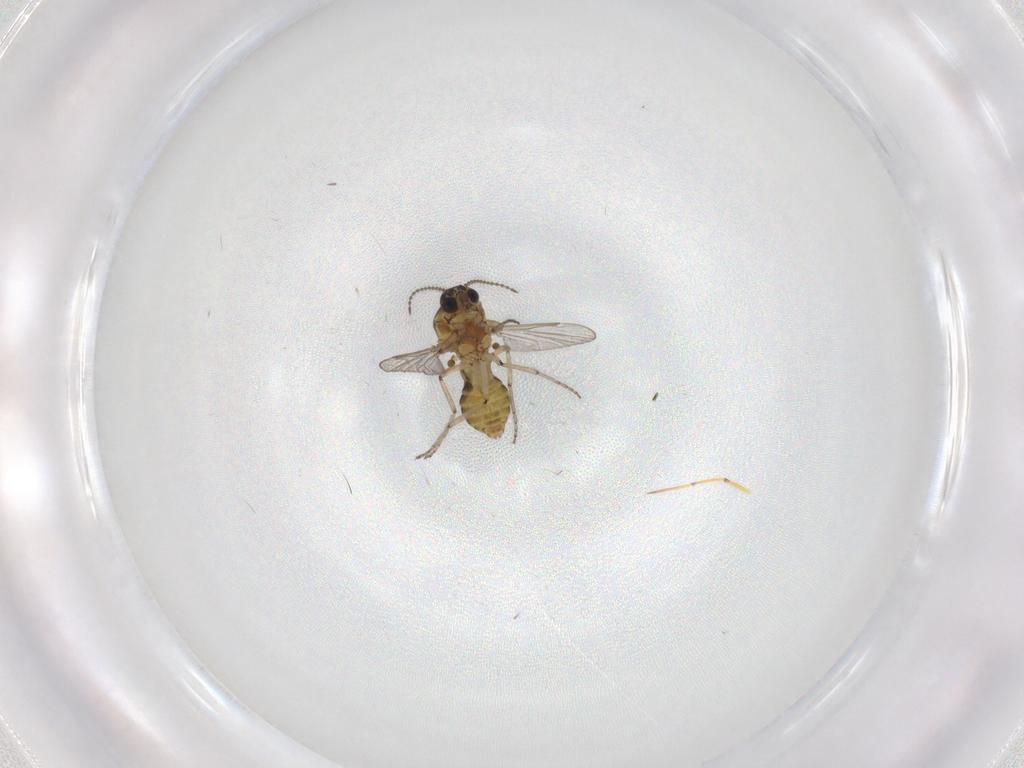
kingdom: Animalia
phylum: Arthropoda
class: Insecta
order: Diptera
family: Ceratopogonidae
